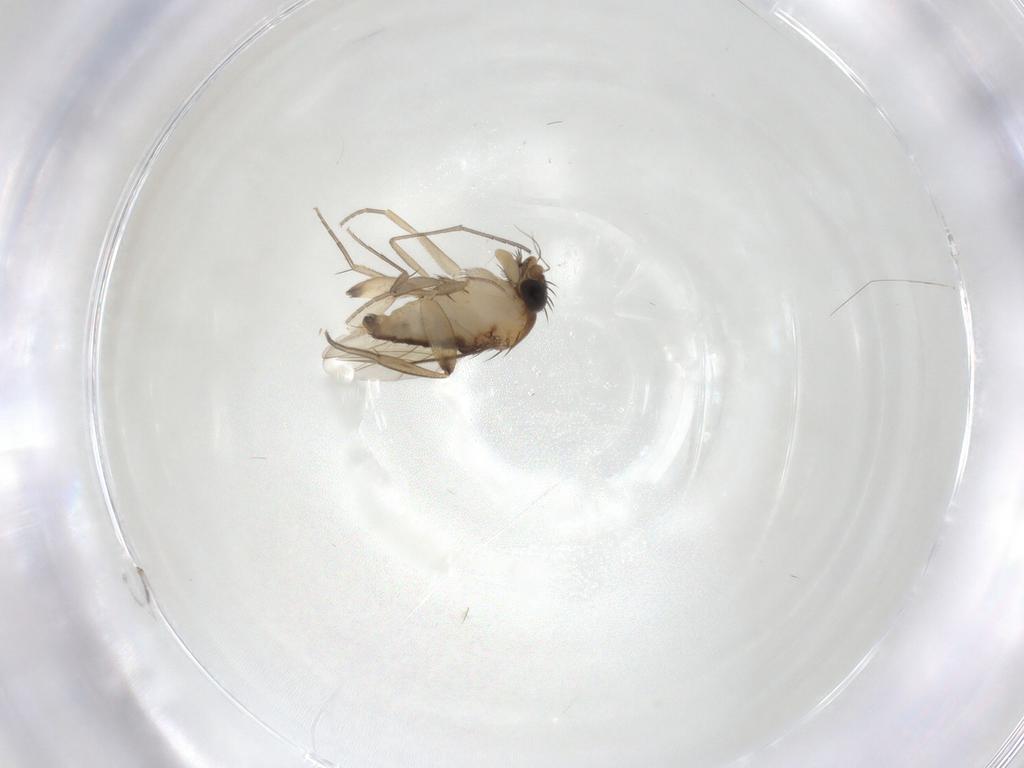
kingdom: Animalia
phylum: Arthropoda
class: Insecta
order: Diptera
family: Phoridae
